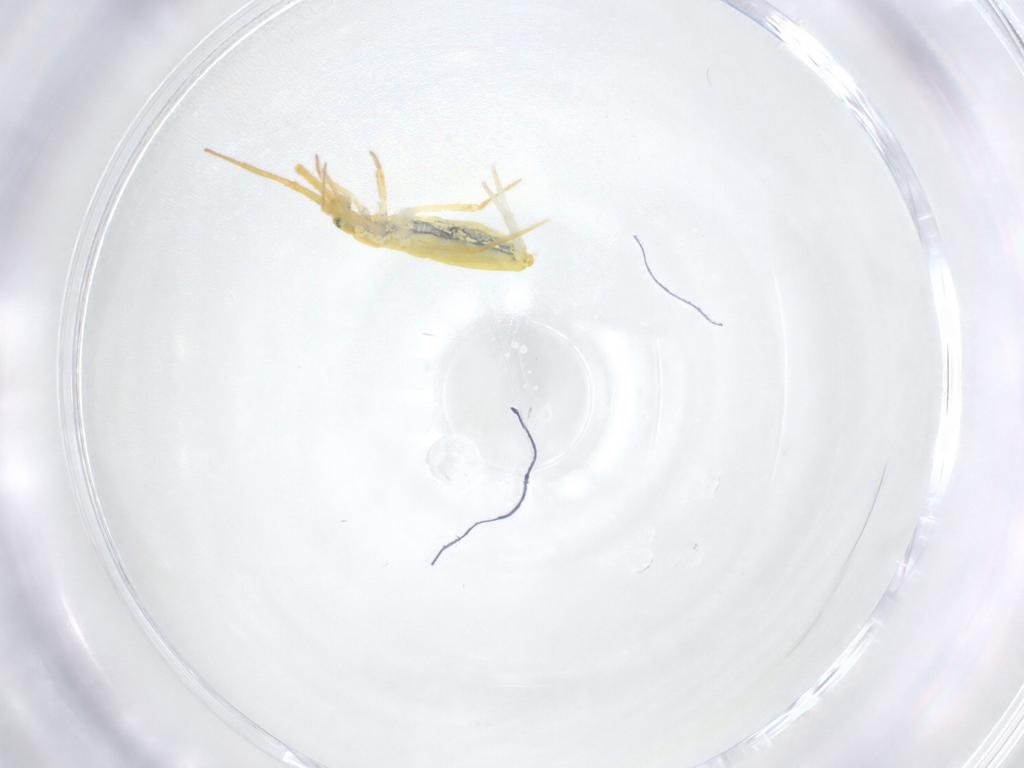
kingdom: Animalia
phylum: Arthropoda
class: Collembola
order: Entomobryomorpha
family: Paronellidae
